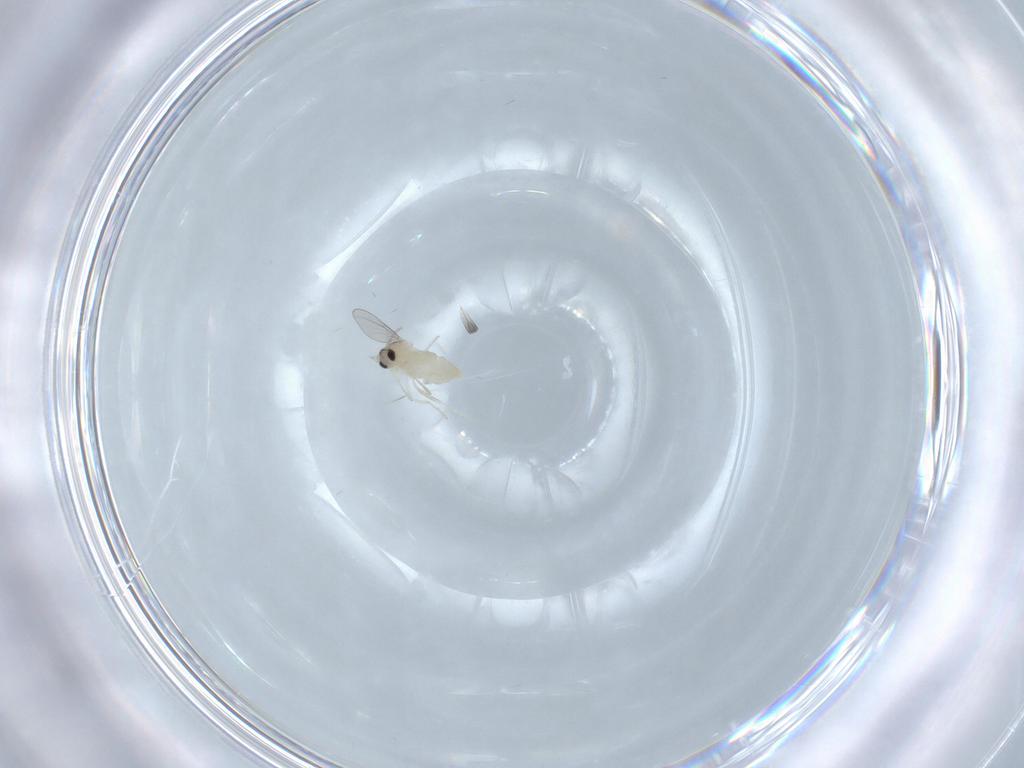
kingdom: Animalia
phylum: Arthropoda
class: Insecta
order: Diptera
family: Cecidomyiidae
